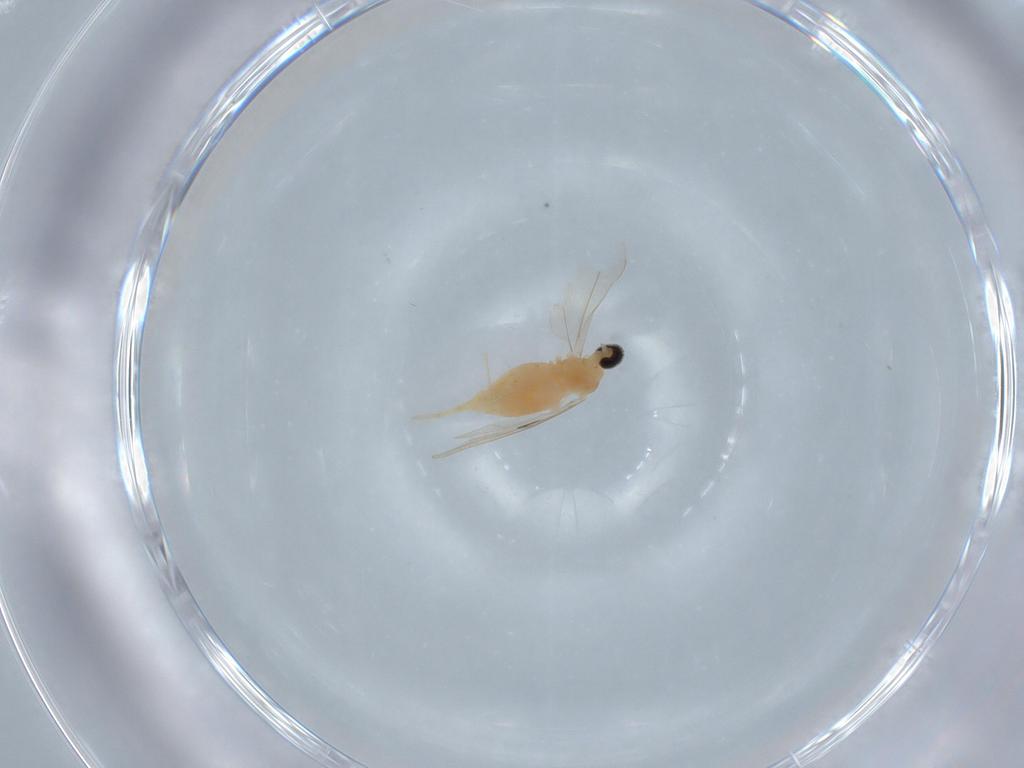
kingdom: Animalia
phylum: Arthropoda
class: Insecta
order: Diptera
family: Cecidomyiidae
